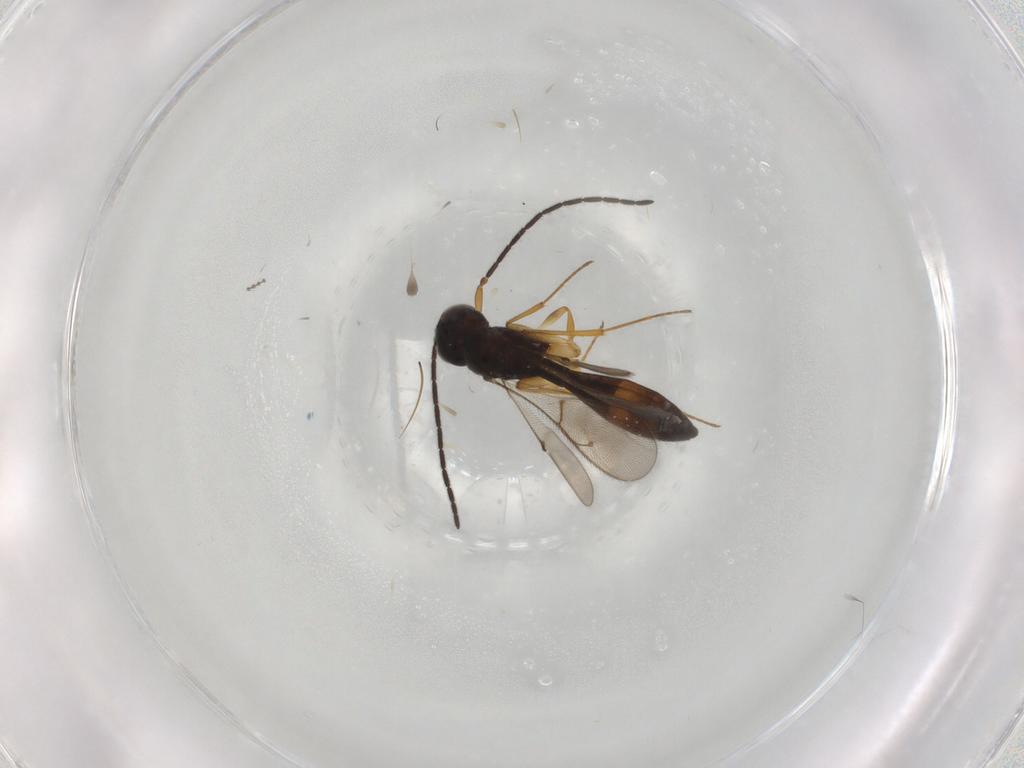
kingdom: Animalia
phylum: Arthropoda
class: Insecta
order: Hymenoptera
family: Scelionidae
